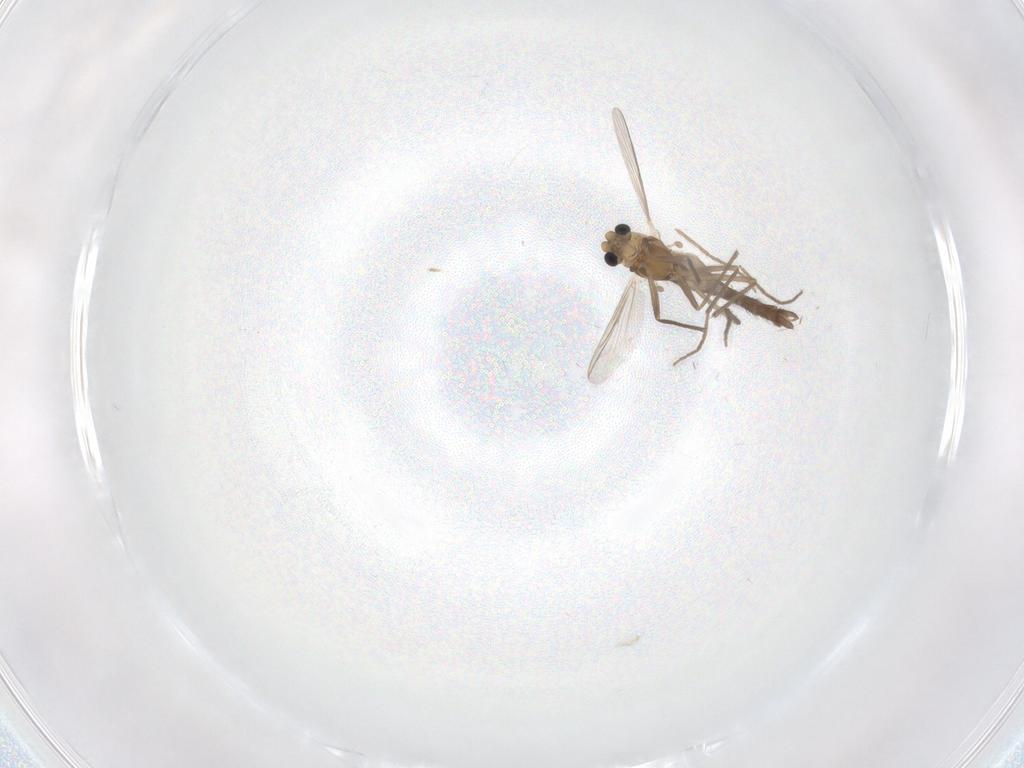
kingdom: Animalia
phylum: Arthropoda
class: Insecta
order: Diptera
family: Chironomidae
